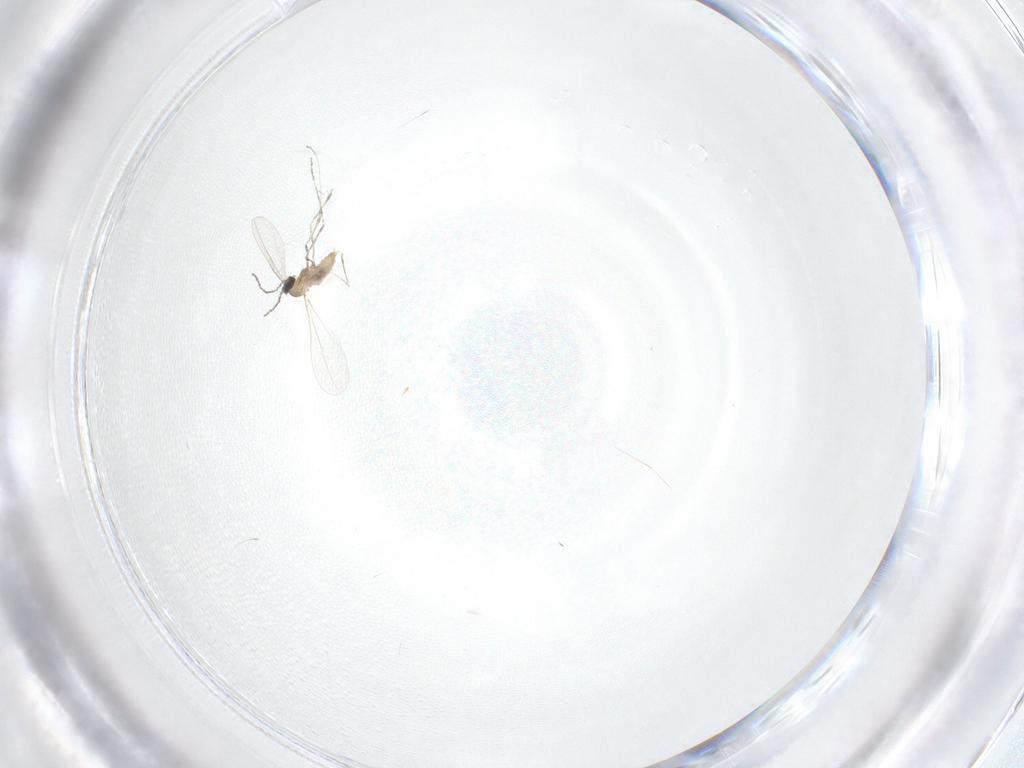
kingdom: Animalia
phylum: Arthropoda
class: Insecta
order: Diptera
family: Cecidomyiidae
